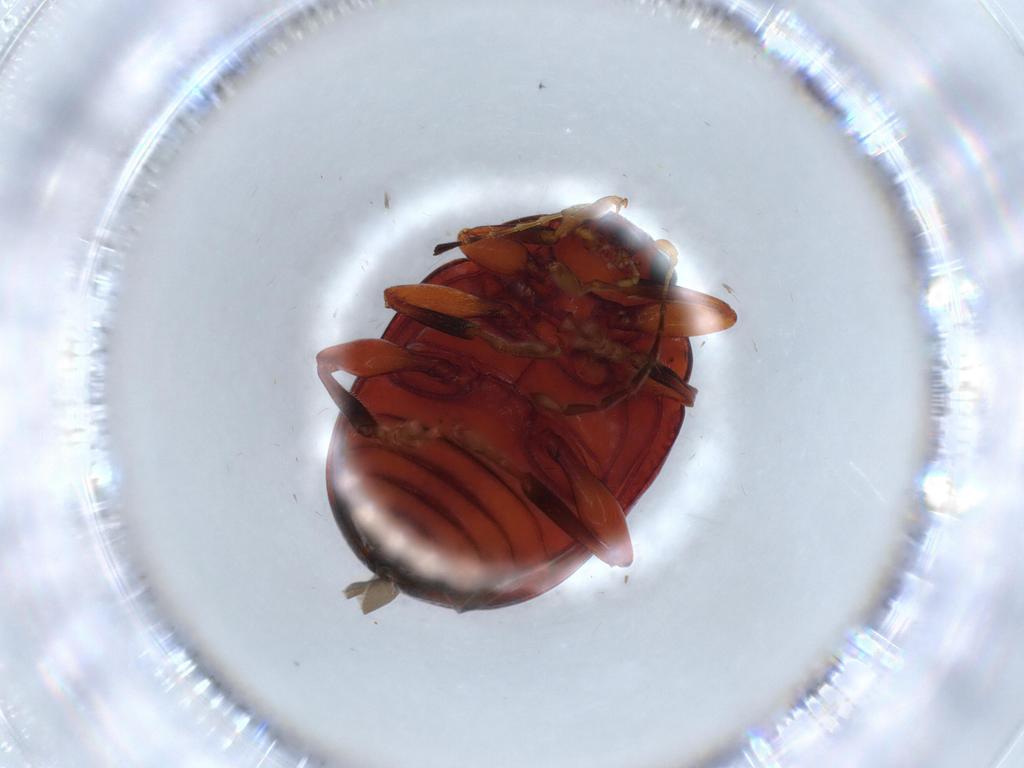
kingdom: Animalia
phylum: Arthropoda
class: Insecta
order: Coleoptera
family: Chrysomelidae
